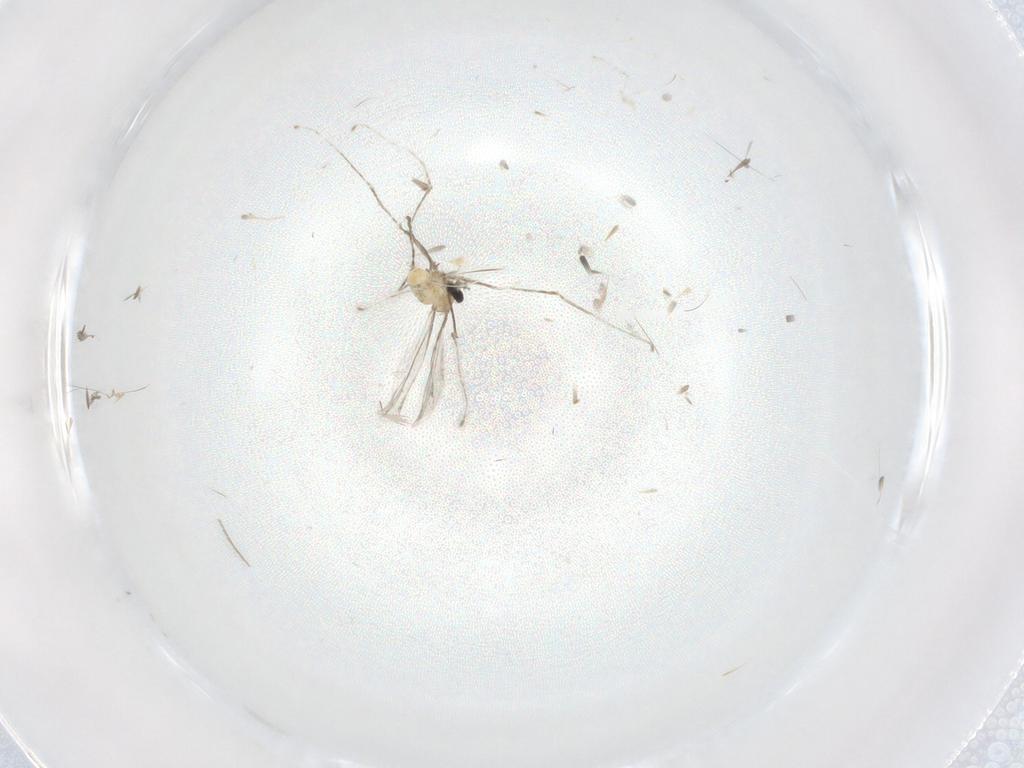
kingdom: Animalia
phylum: Arthropoda
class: Insecta
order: Diptera
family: Cecidomyiidae
